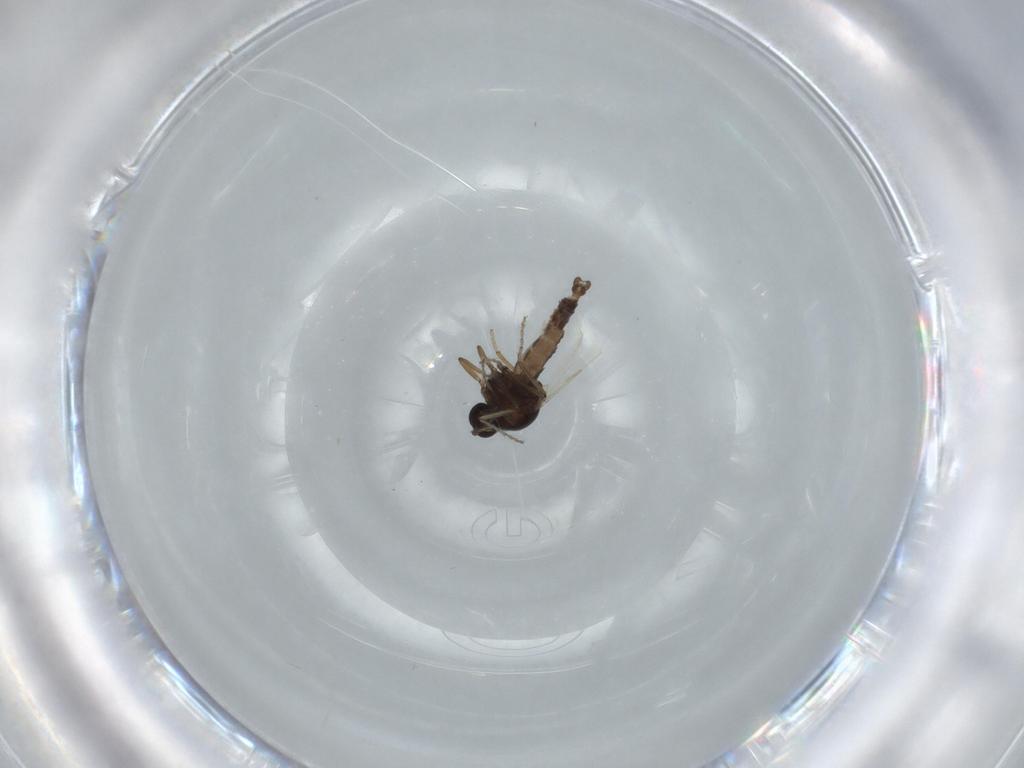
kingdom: Animalia
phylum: Arthropoda
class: Insecta
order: Diptera
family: Ceratopogonidae
